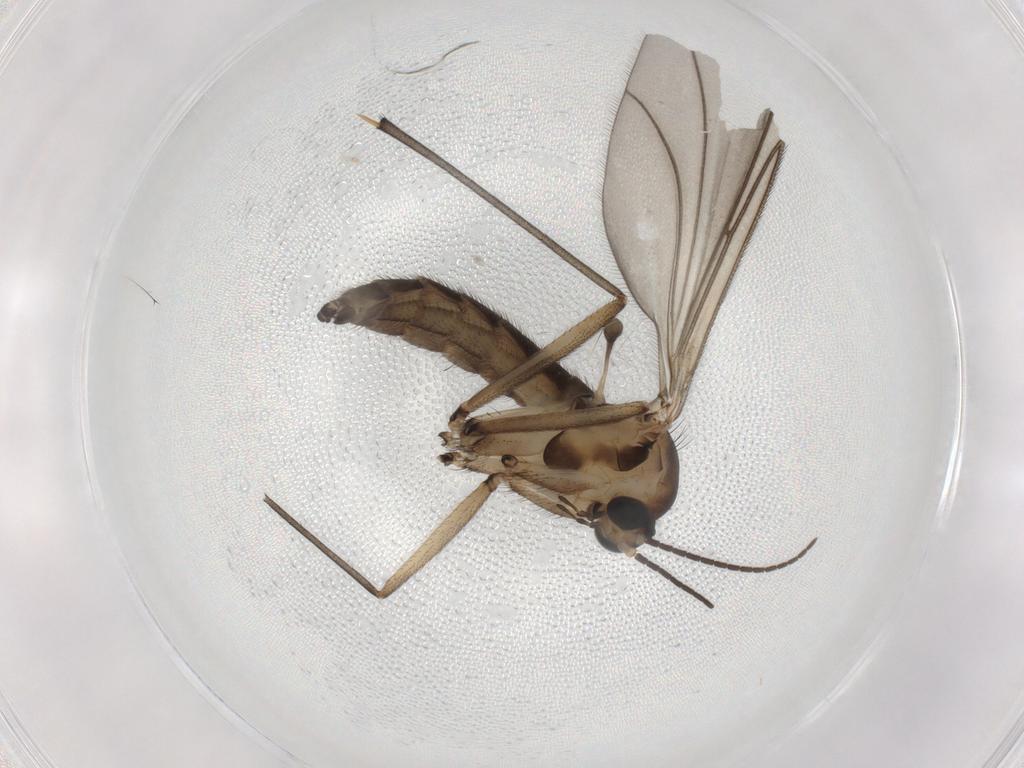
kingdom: Animalia
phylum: Arthropoda
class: Insecta
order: Diptera
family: Sciaridae
